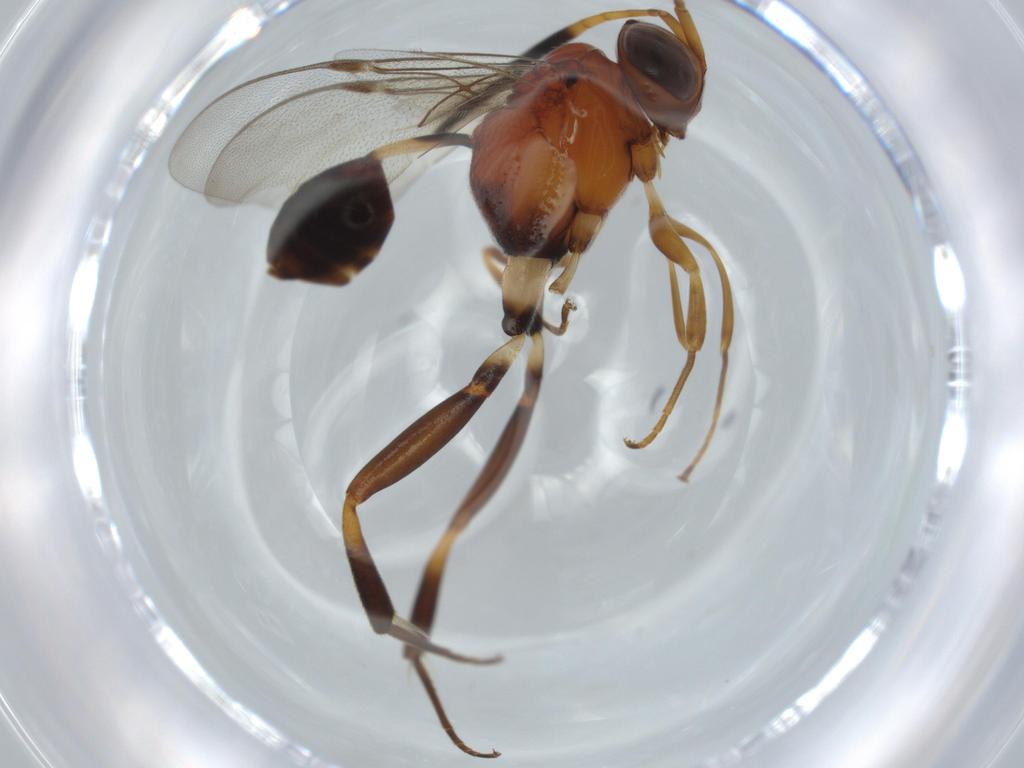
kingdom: Animalia
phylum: Arthropoda
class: Insecta
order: Hymenoptera
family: Evaniidae
